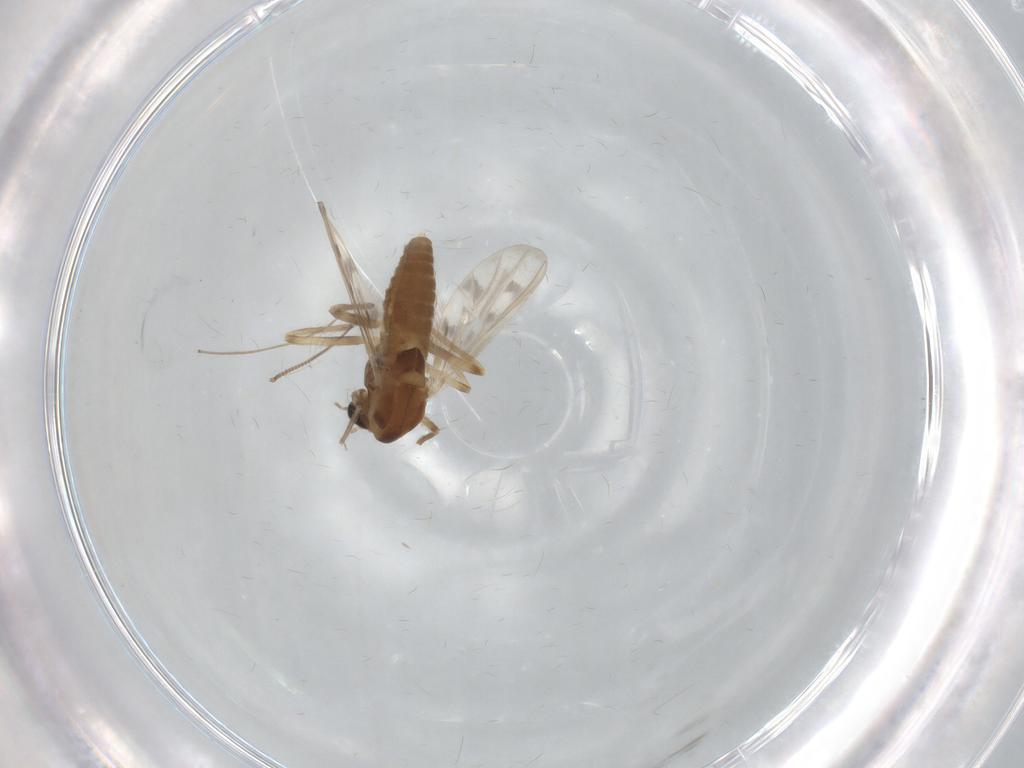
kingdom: Animalia
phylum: Arthropoda
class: Insecta
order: Diptera
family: Chironomidae
